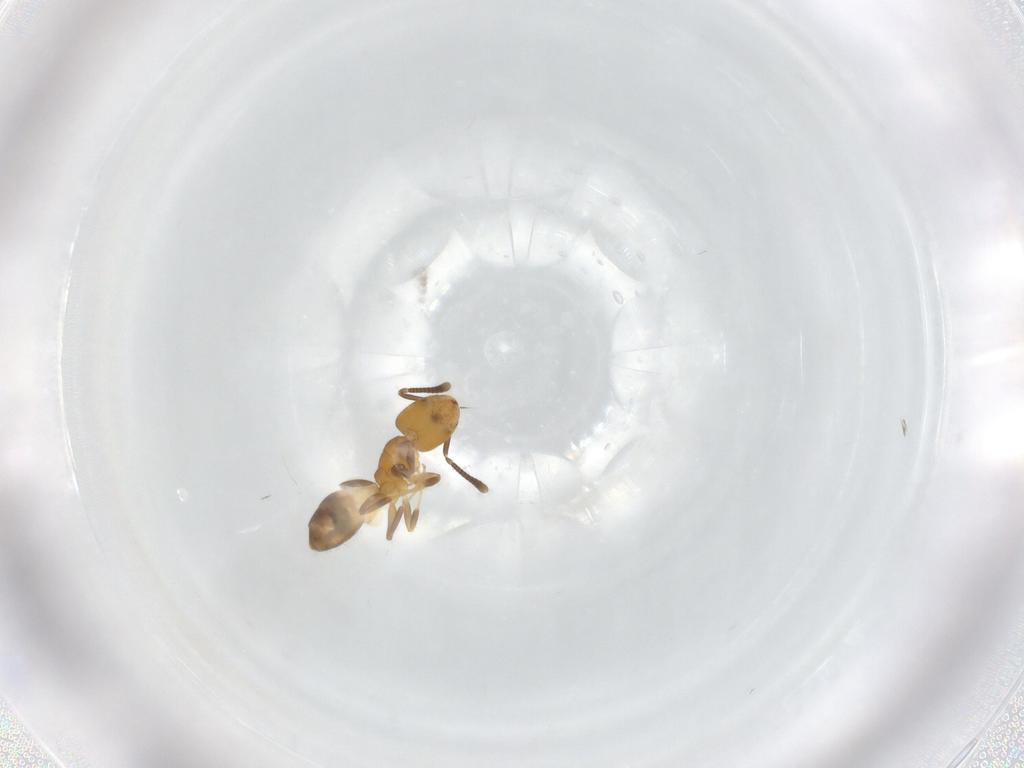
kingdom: Animalia
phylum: Arthropoda
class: Insecta
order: Hymenoptera
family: Formicidae
